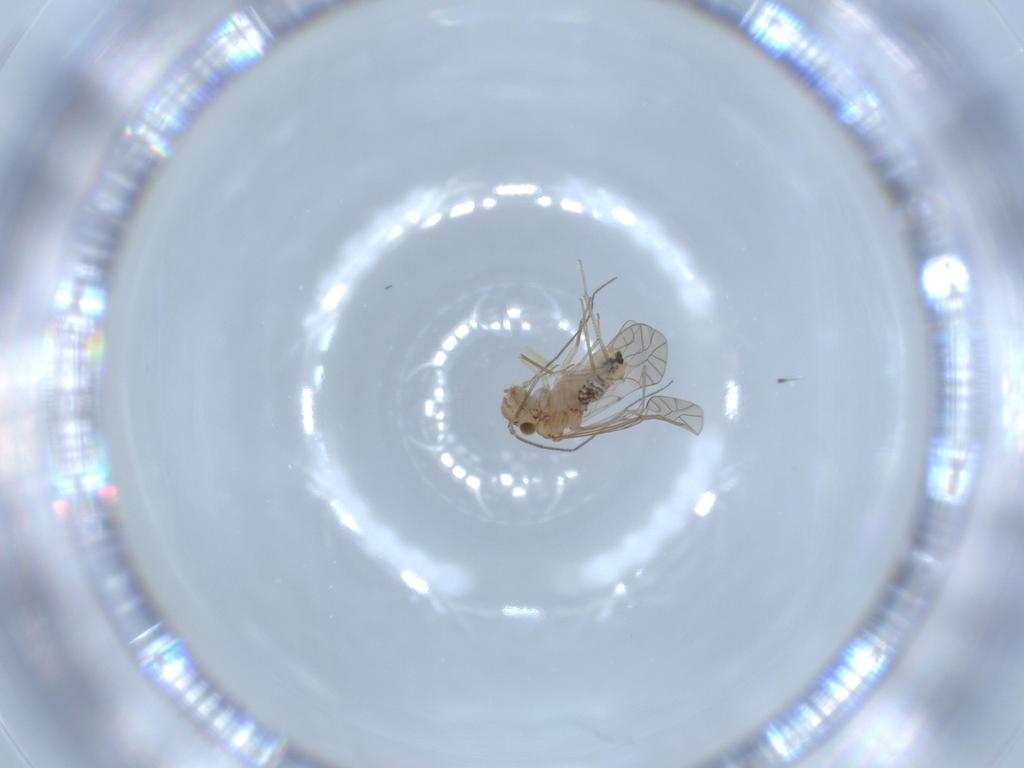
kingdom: Animalia
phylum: Arthropoda
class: Insecta
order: Psocodea
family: Lachesillidae
